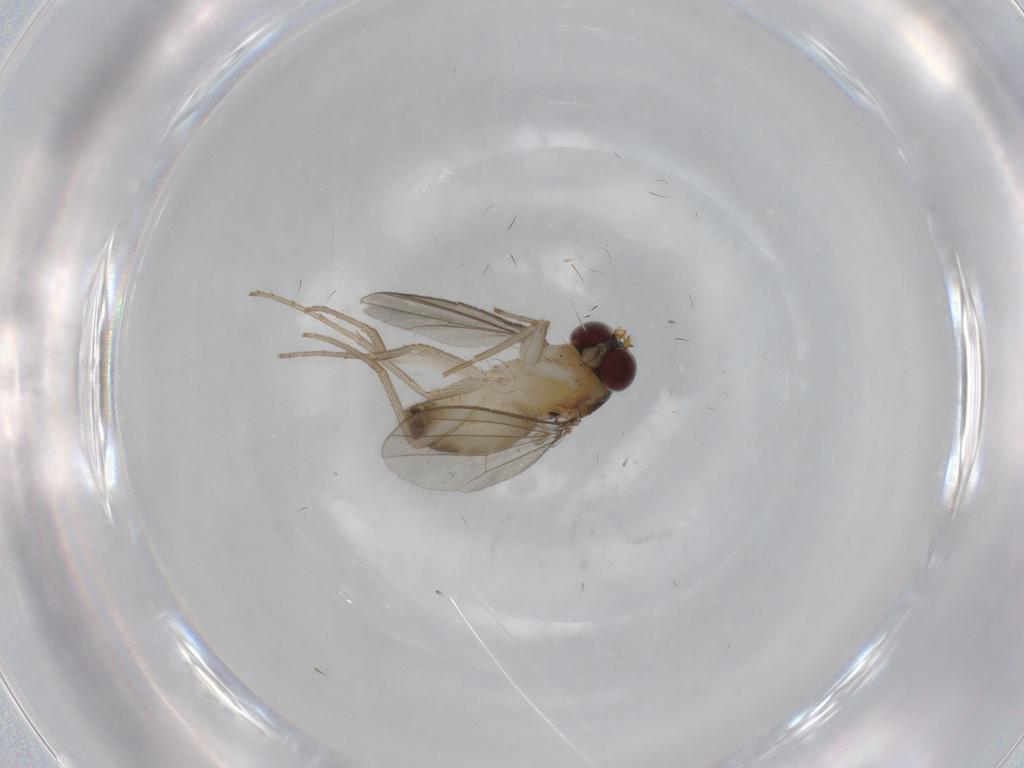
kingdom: Animalia
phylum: Arthropoda
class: Insecta
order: Diptera
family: Chironomidae
